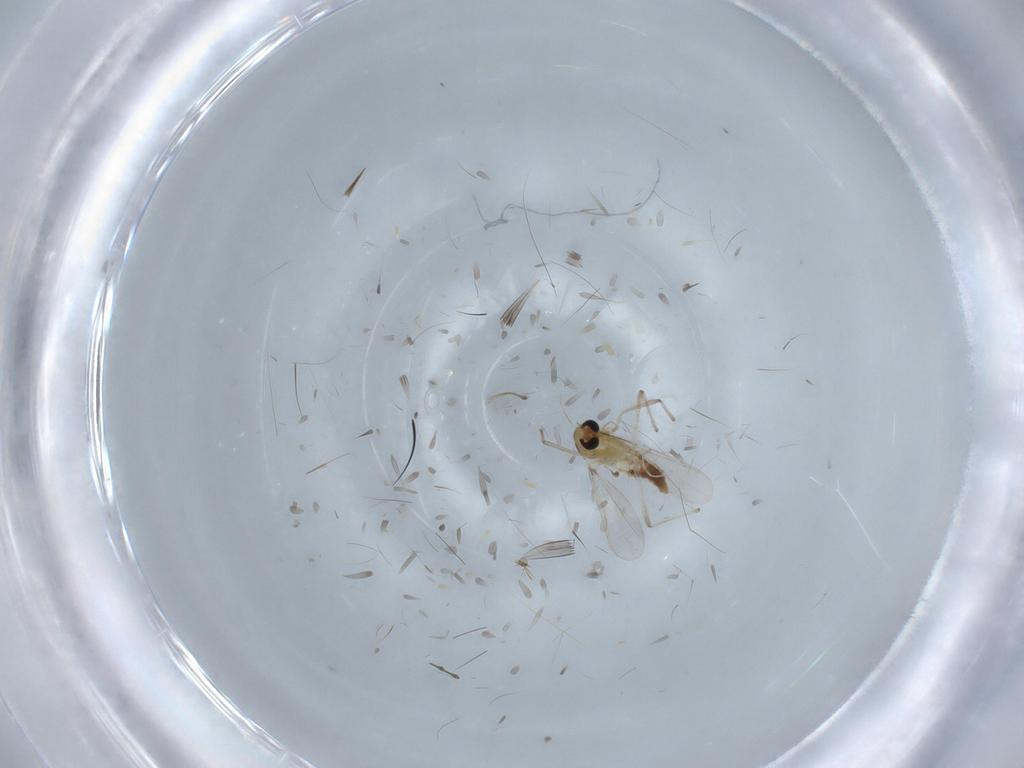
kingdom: Animalia
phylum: Arthropoda
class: Insecta
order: Diptera
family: Chironomidae
